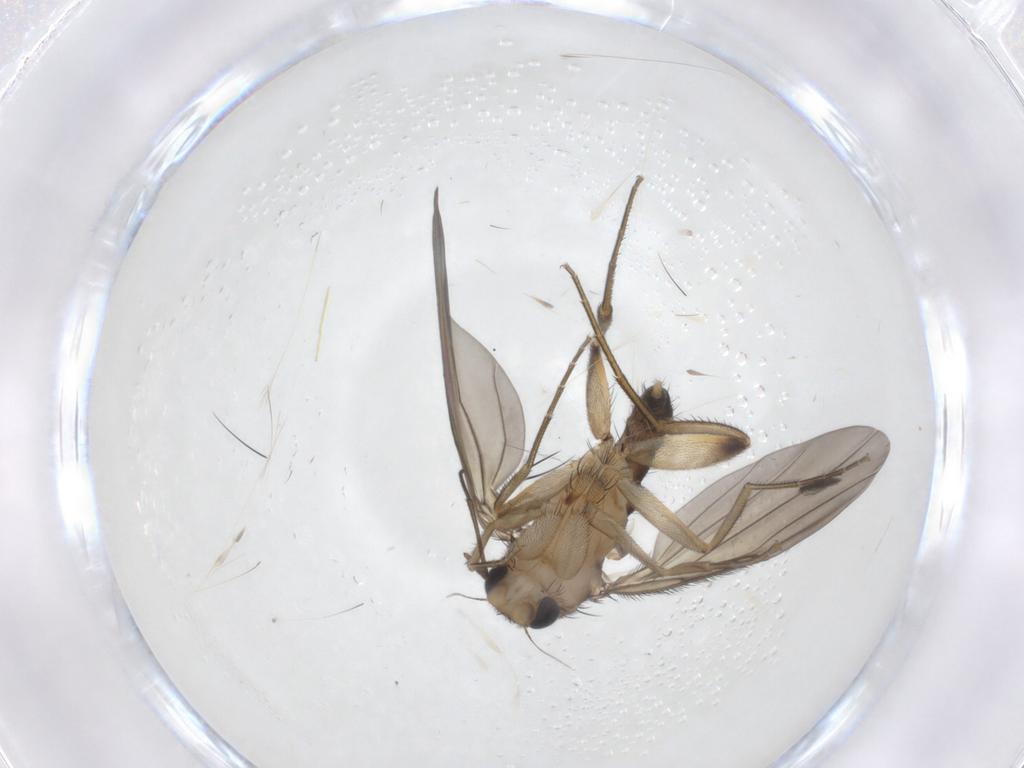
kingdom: Animalia
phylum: Arthropoda
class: Insecta
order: Diptera
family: Phoridae
